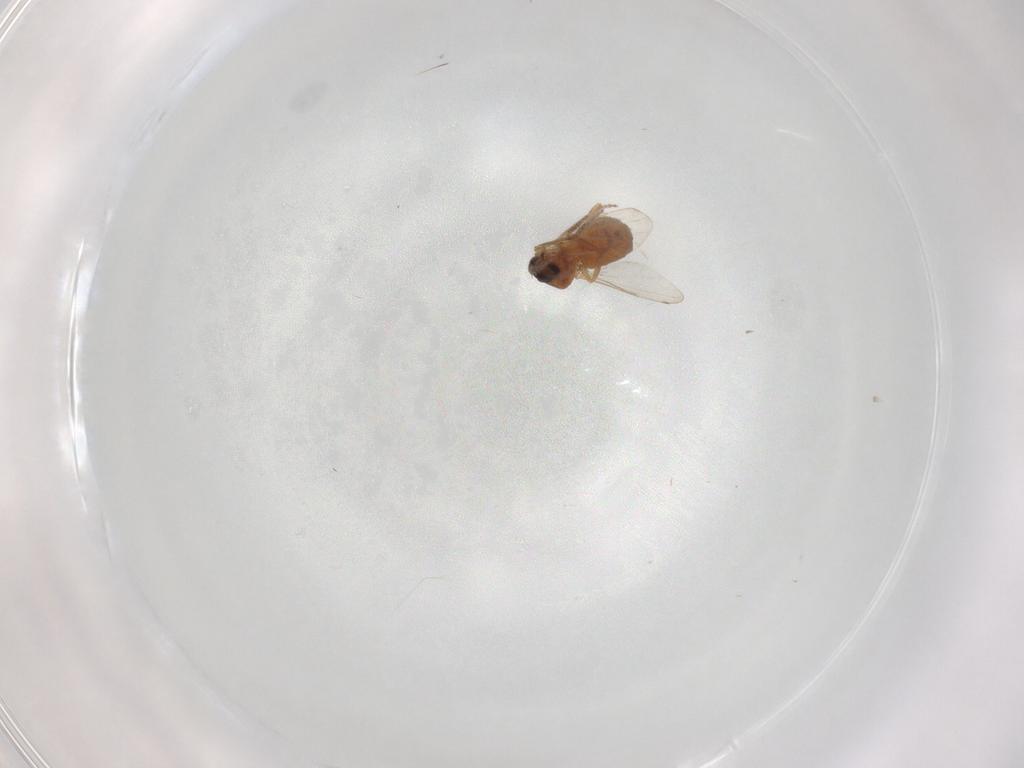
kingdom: Animalia
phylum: Arthropoda
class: Insecta
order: Diptera
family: Ceratopogonidae
